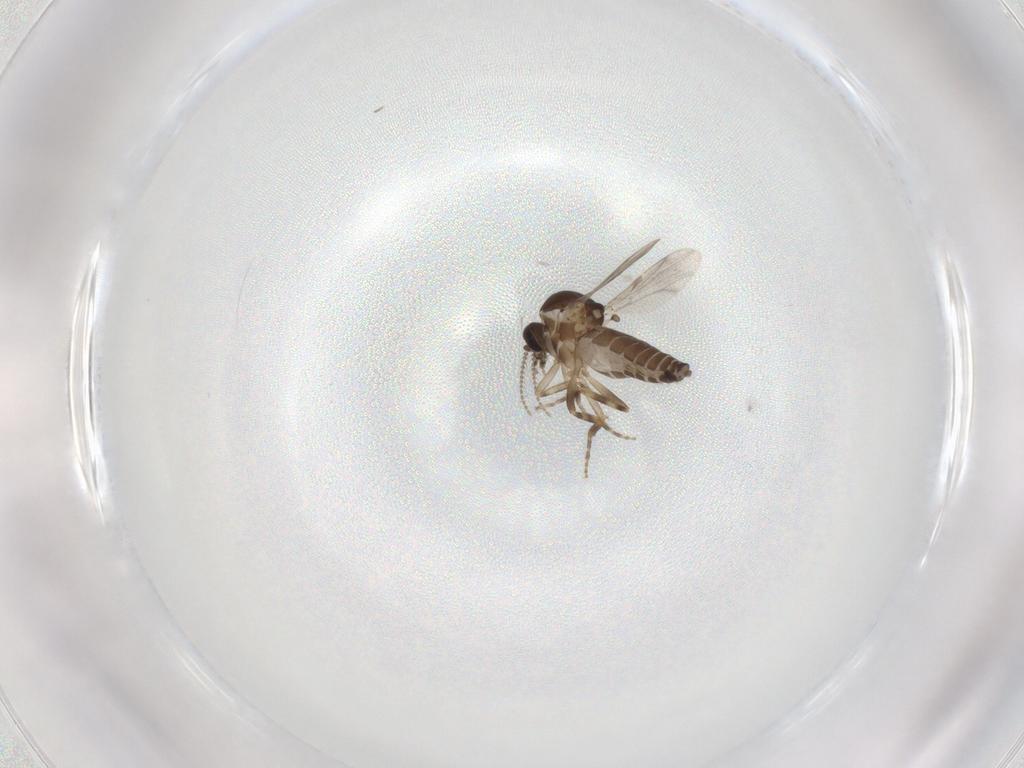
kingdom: Animalia
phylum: Arthropoda
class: Insecta
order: Diptera
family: Ceratopogonidae
